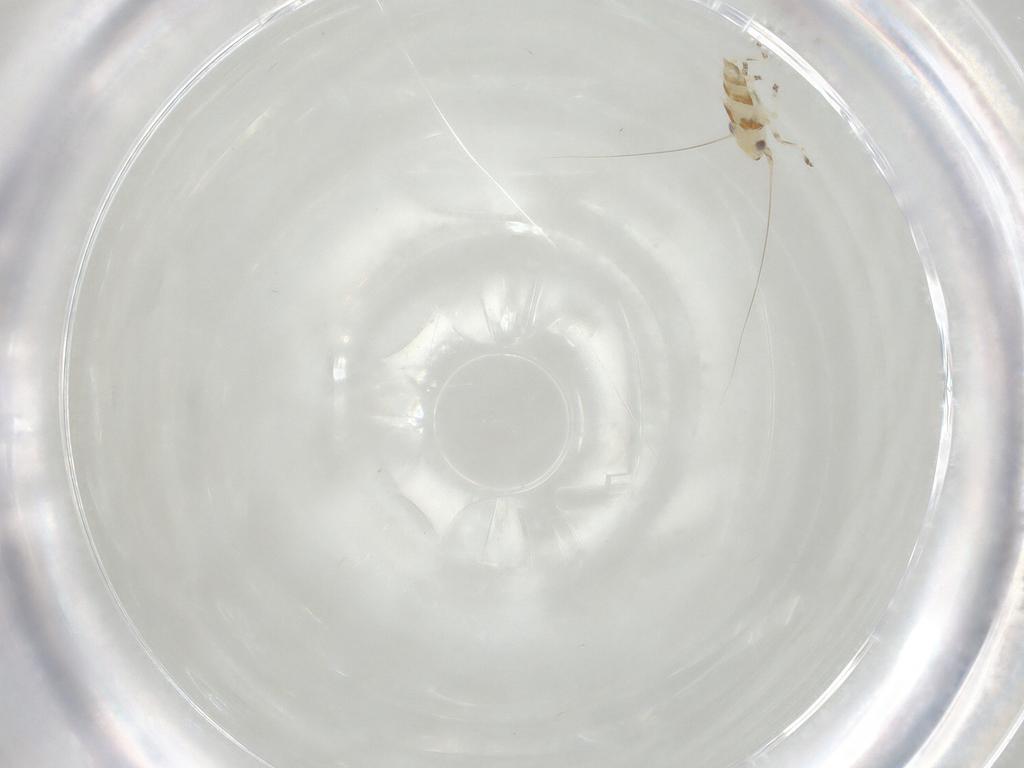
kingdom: Animalia
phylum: Arthropoda
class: Insecta
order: Hemiptera
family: Cicadellidae
